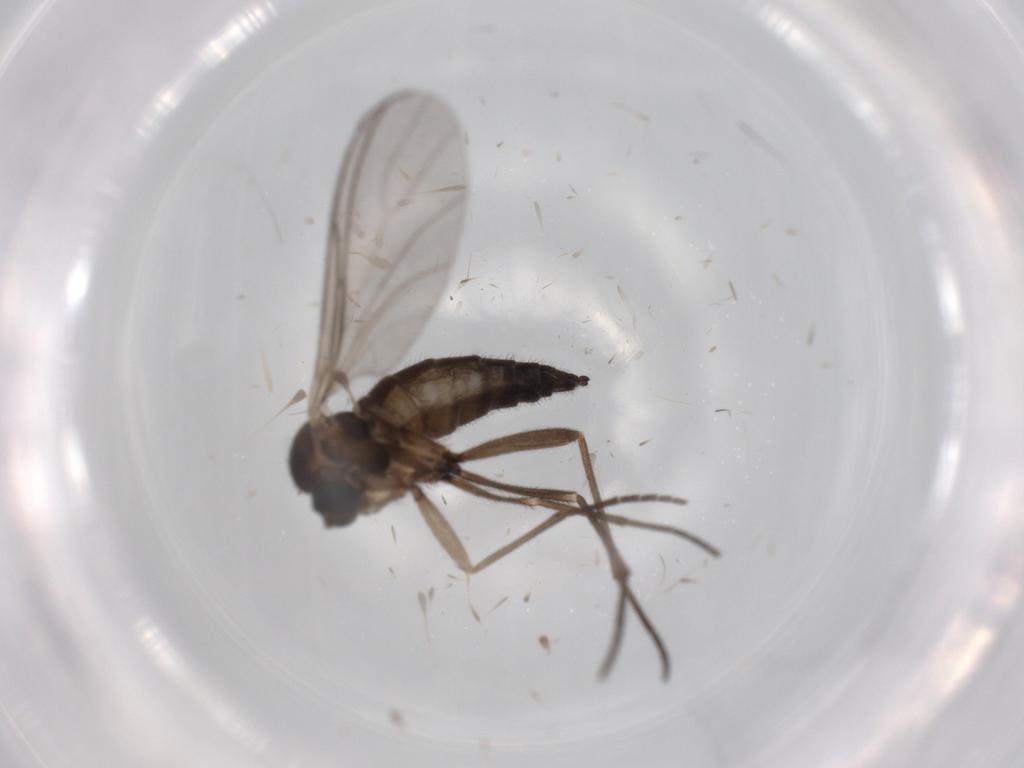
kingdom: Animalia
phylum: Arthropoda
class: Insecta
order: Diptera
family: Sciaridae
